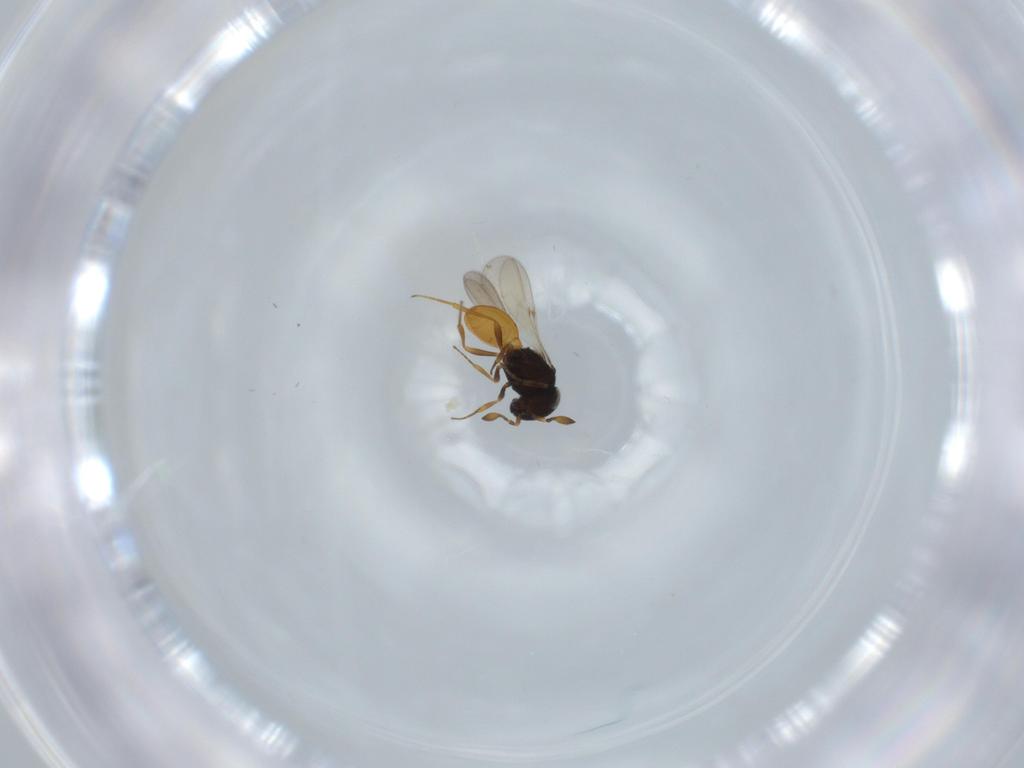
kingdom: Animalia
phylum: Arthropoda
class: Insecta
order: Hymenoptera
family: Scelionidae
